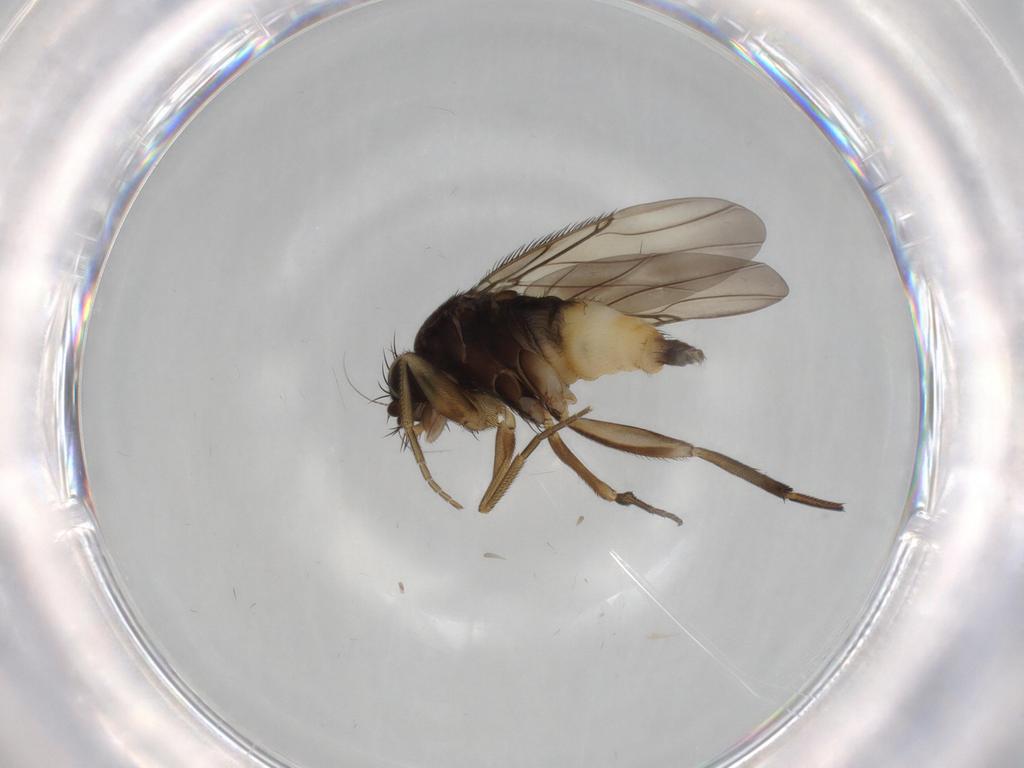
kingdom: Animalia
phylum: Arthropoda
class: Insecta
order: Diptera
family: Phoridae
